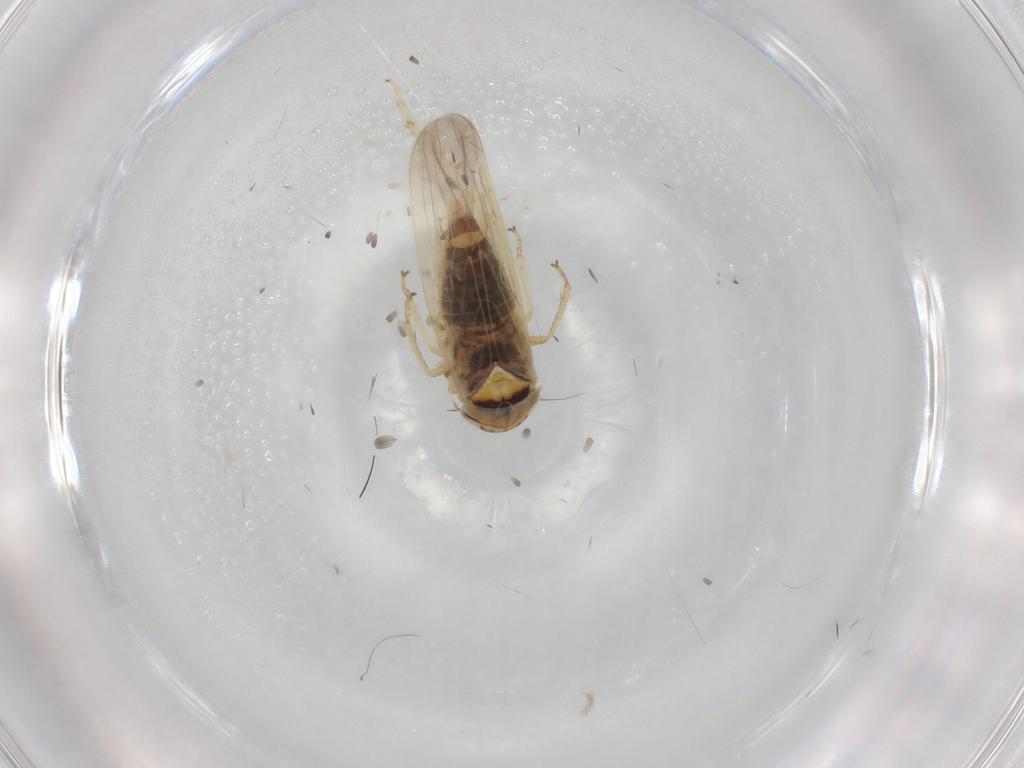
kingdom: Animalia
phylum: Arthropoda
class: Insecta
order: Hemiptera
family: Cicadellidae
